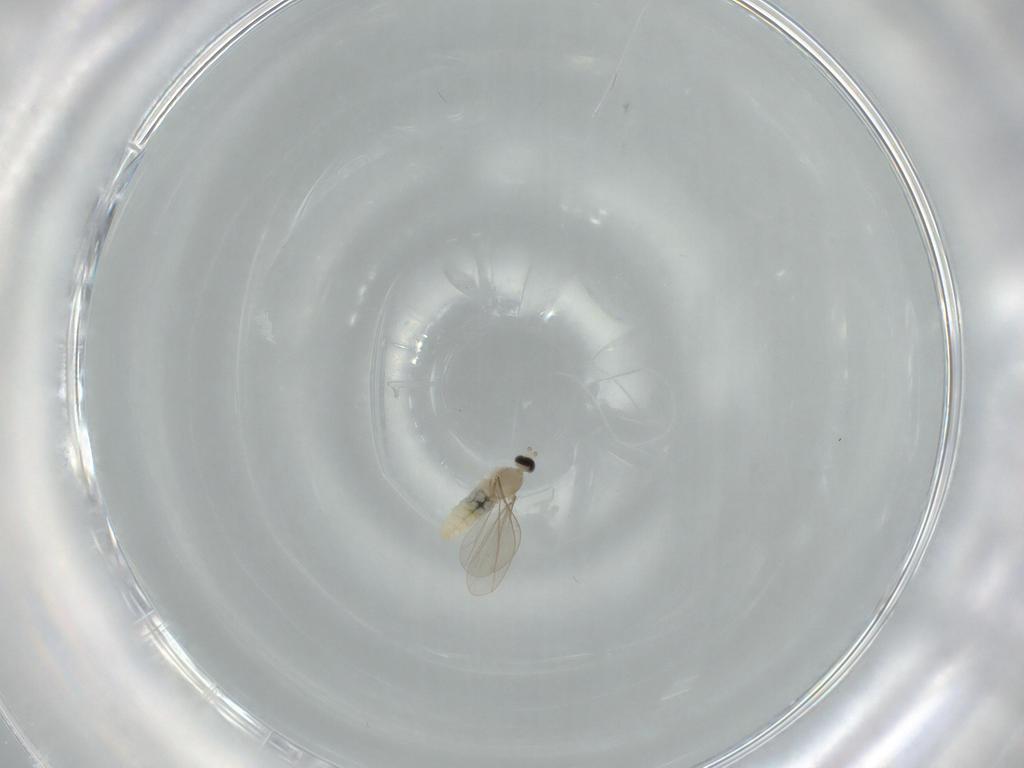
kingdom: Animalia
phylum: Arthropoda
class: Insecta
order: Diptera
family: Cecidomyiidae
